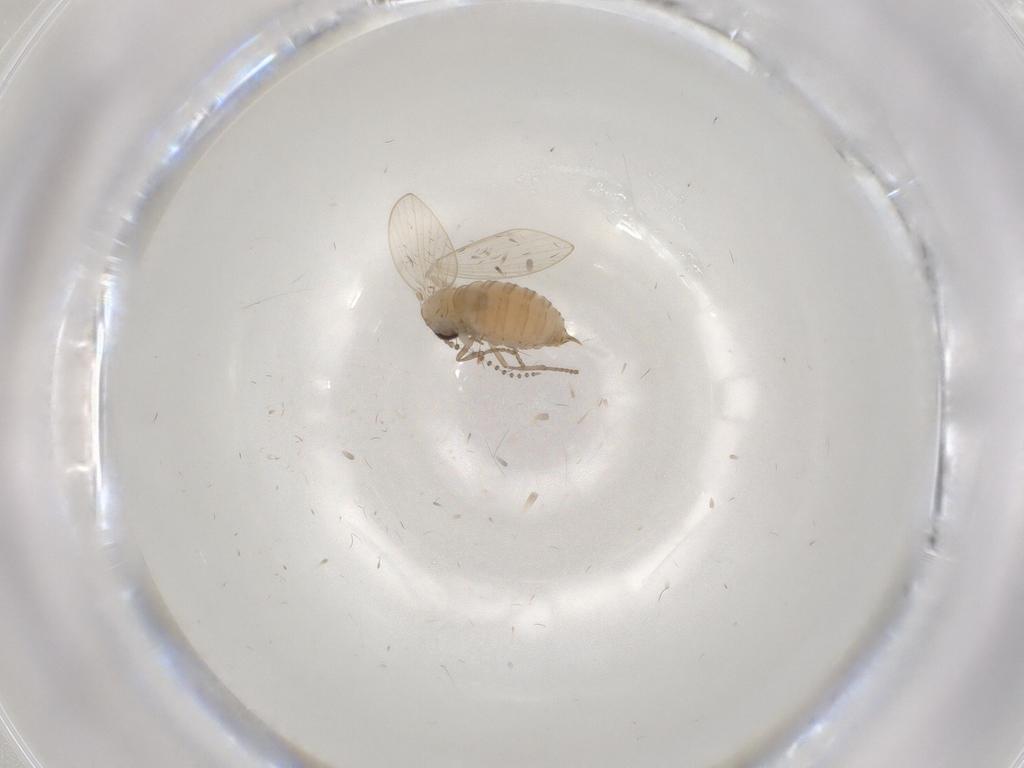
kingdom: Animalia
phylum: Arthropoda
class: Insecta
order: Diptera
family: Psychodidae
